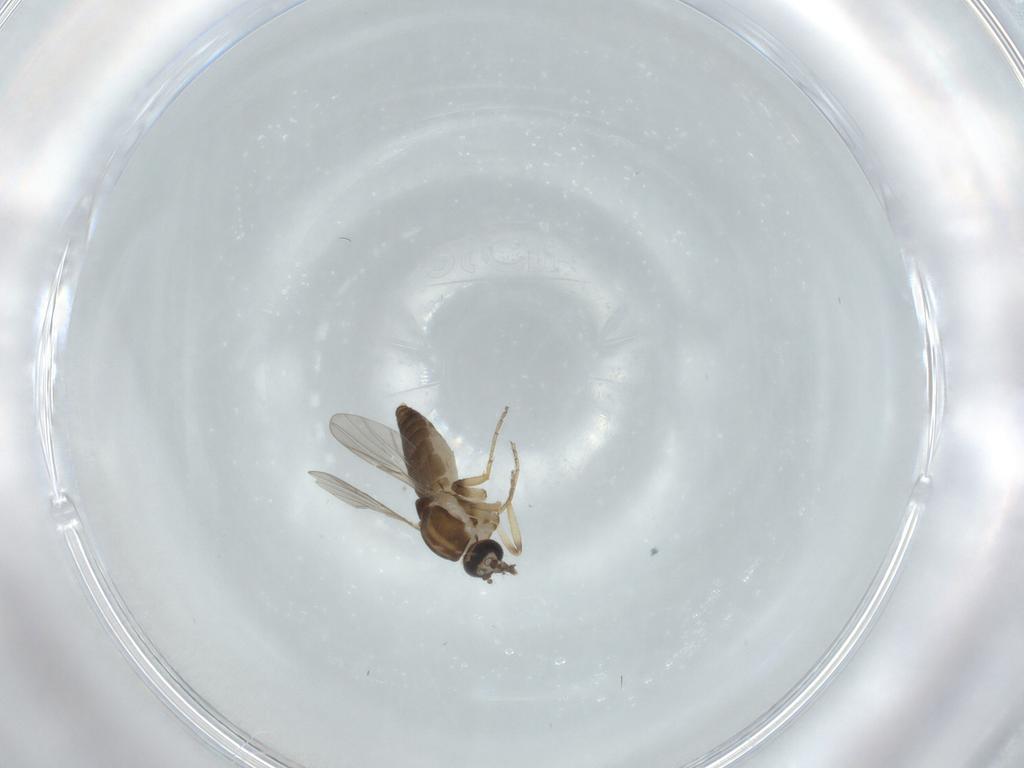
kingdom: Animalia
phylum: Arthropoda
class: Insecta
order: Diptera
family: Ceratopogonidae
